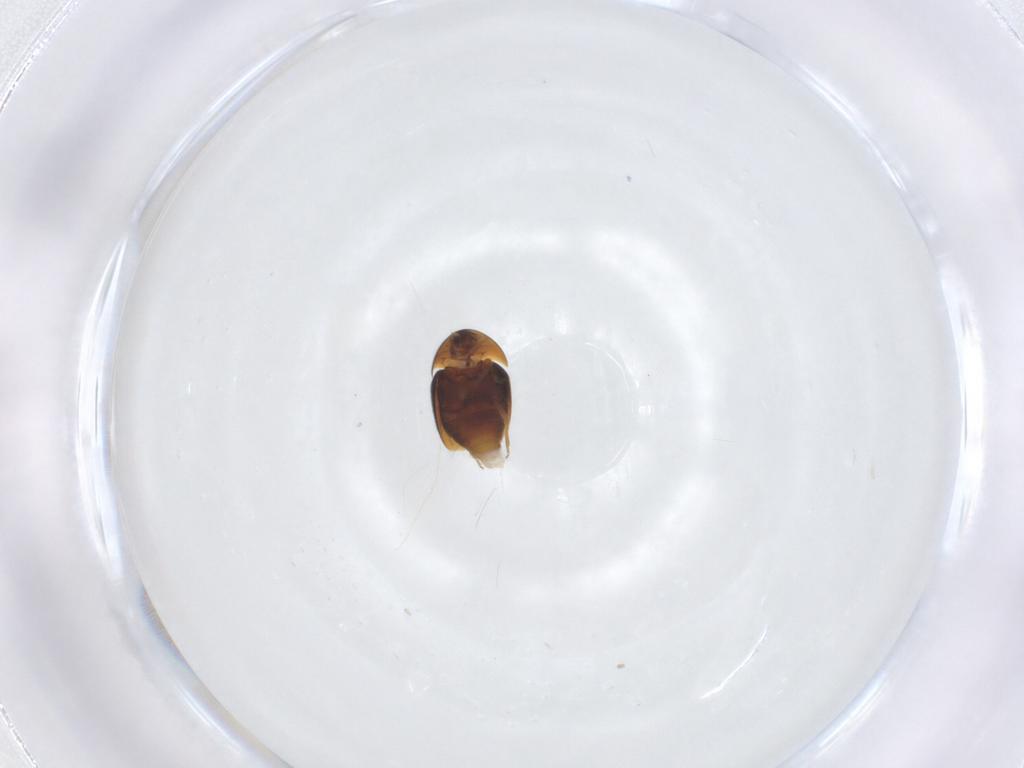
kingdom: Animalia
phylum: Arthropoda
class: Insecta
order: Coleoptera
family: Corylophidae
